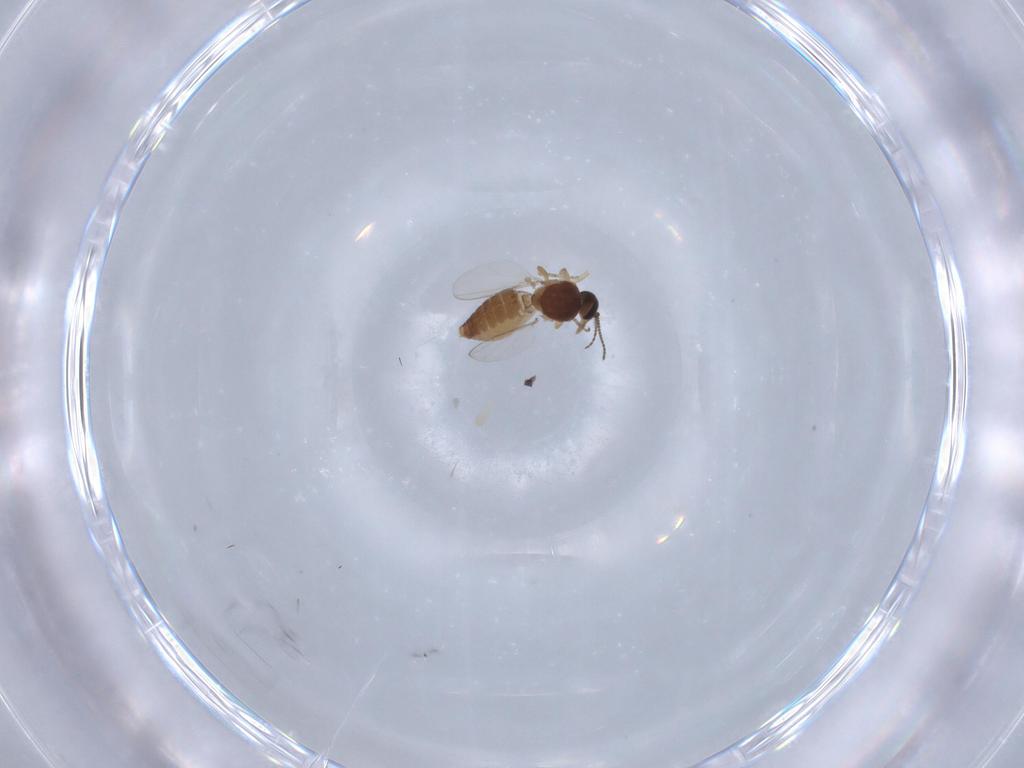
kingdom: Animalia
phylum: Arthropoda
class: Insecta
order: Diptera
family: Ceratopogonidae
